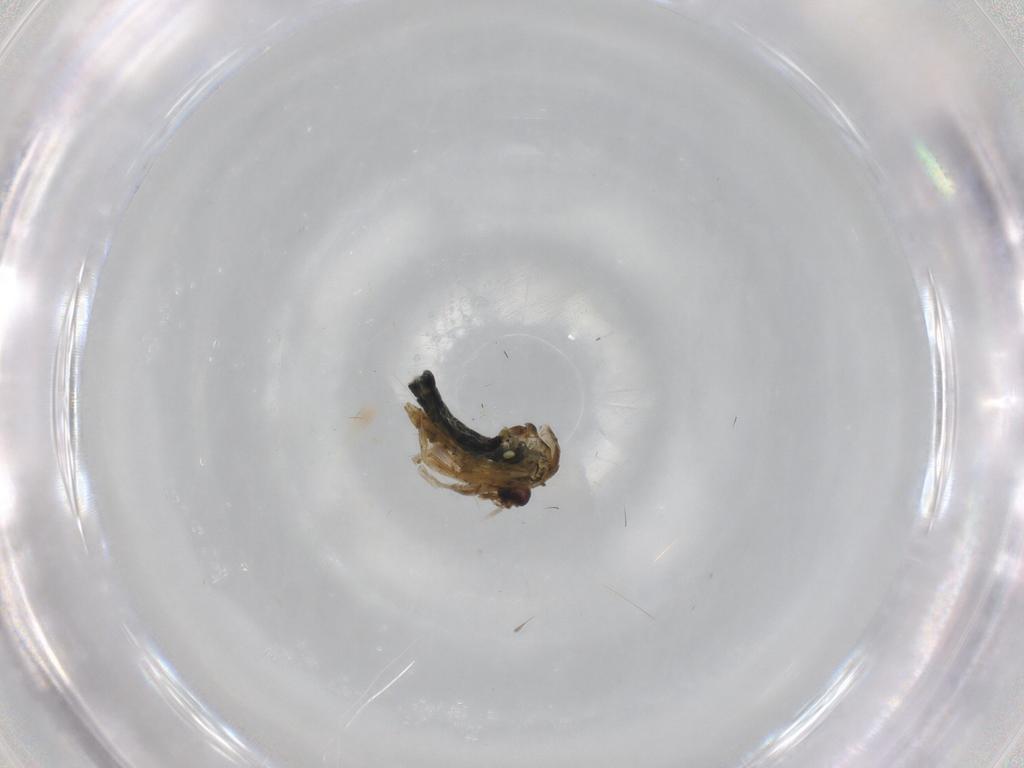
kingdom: Animalia
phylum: Arthropoda
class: Insecta
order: Diptera
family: Ceratopogonidae
